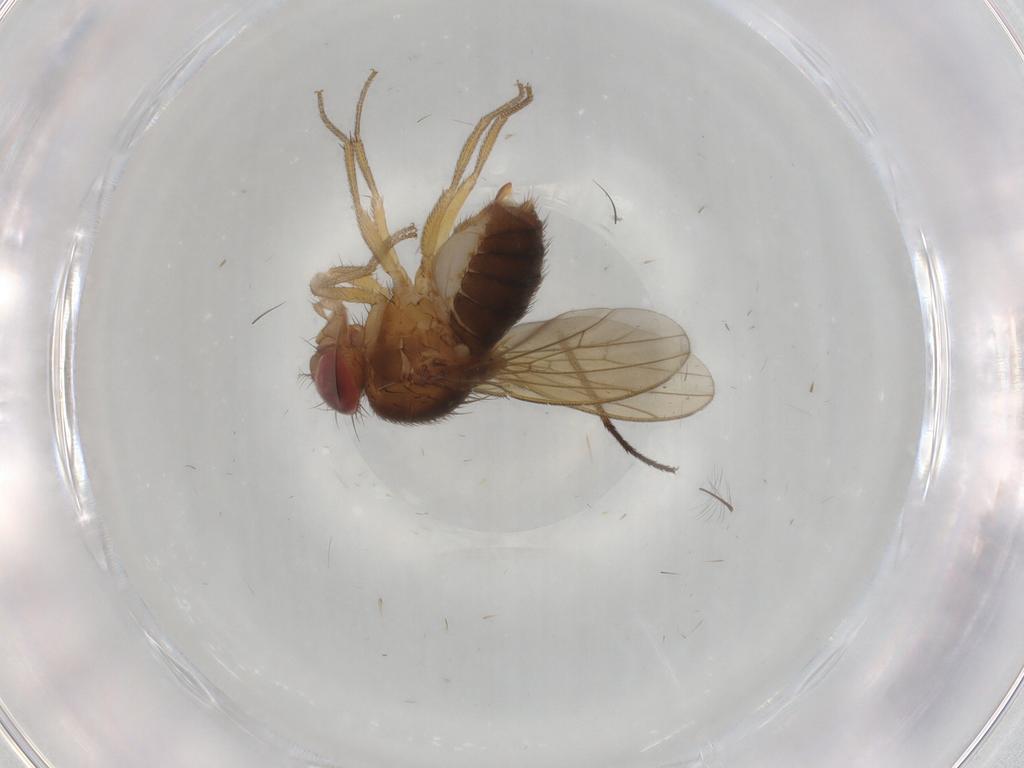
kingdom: Animalia
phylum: Arthropoda
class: Insecta
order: Diptera
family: Drosophilidae
